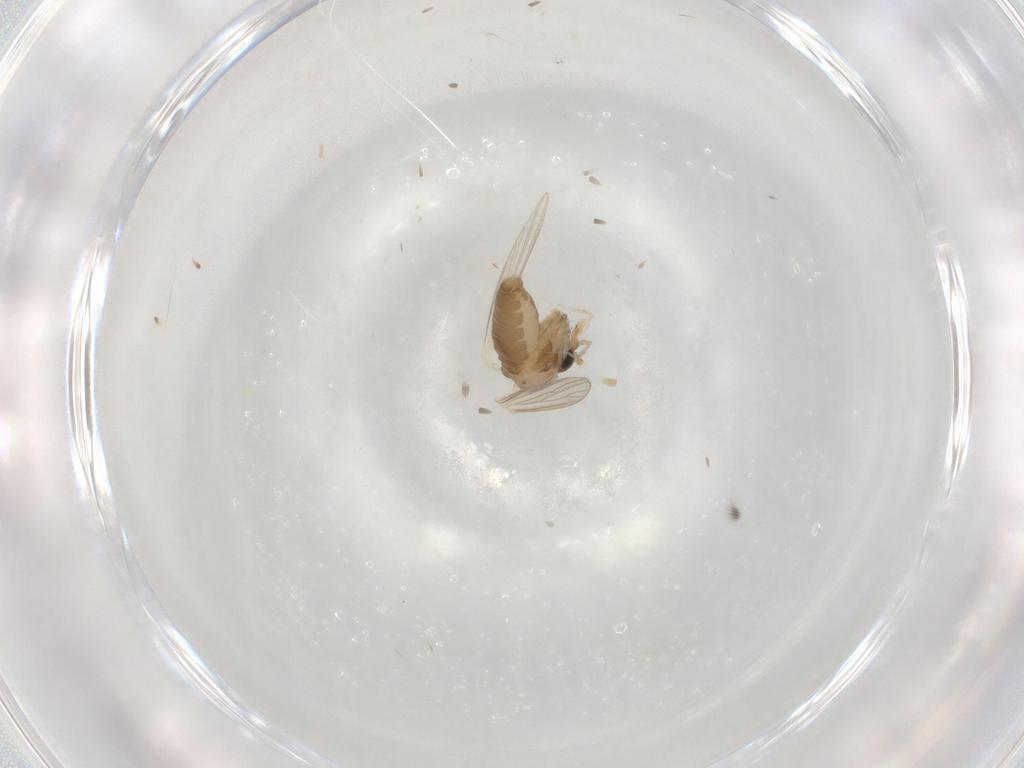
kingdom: Animalia
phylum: Arthropoda
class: Insecta
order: Diptera
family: Psychodidae
